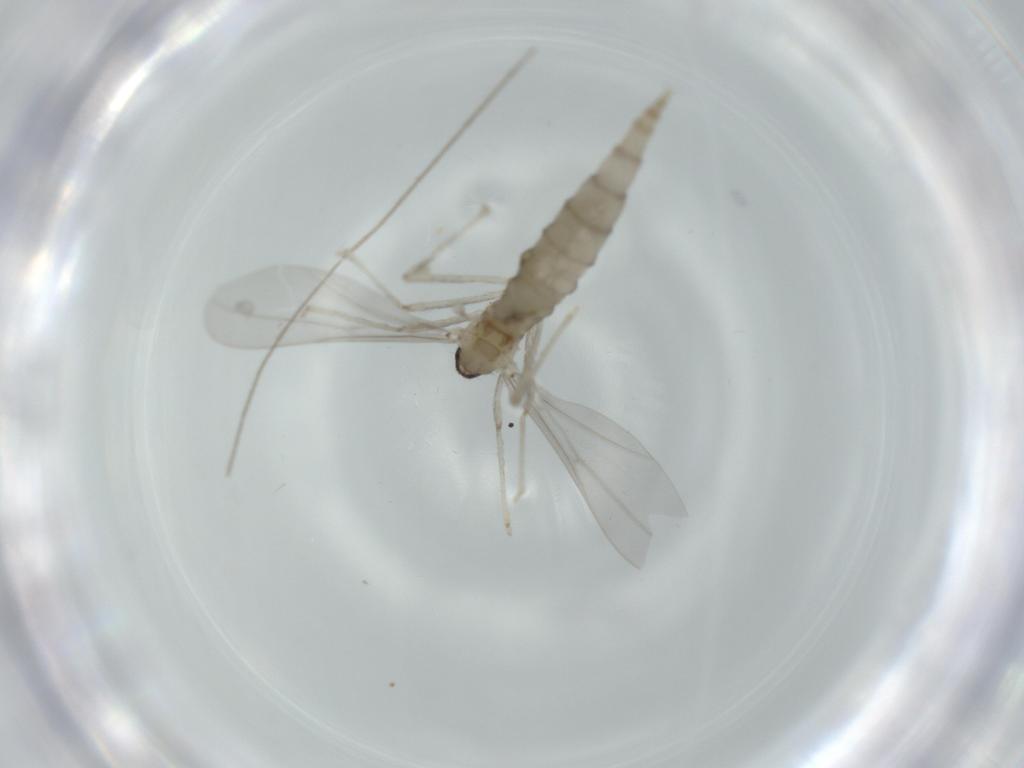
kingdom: Animalia
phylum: Arthropoda
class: Insecta
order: Diptera
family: Cecidomyiidae
